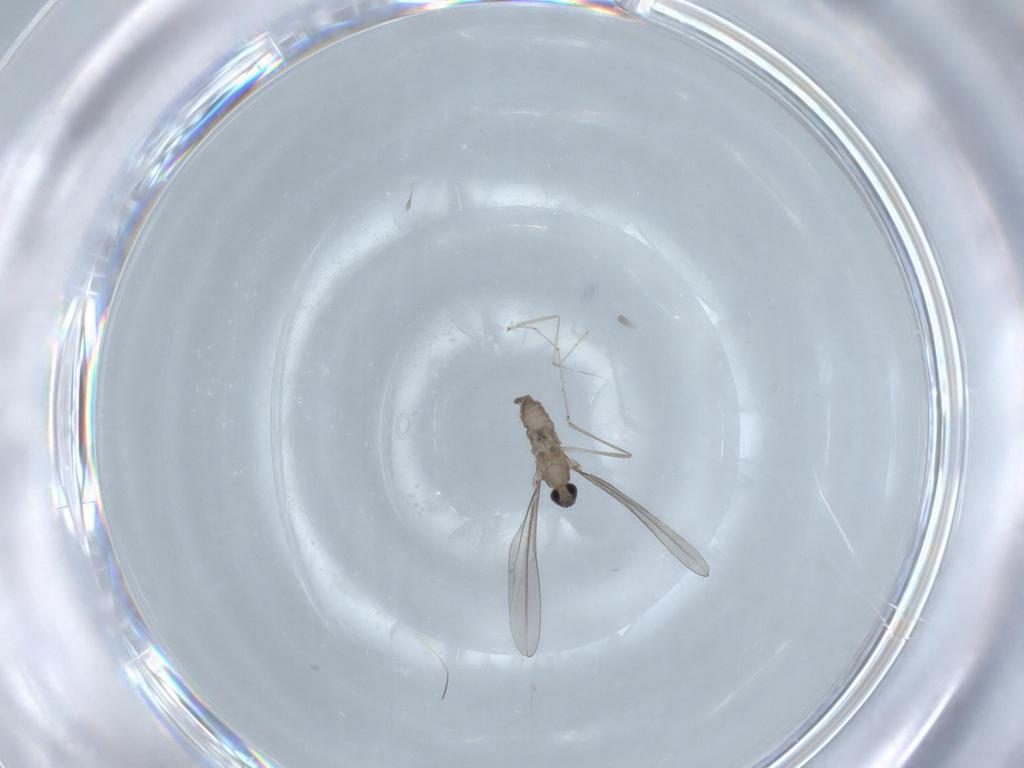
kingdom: Animalia
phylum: Arthropoda
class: Insecta
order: Diptera
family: Cecidomyiidae
